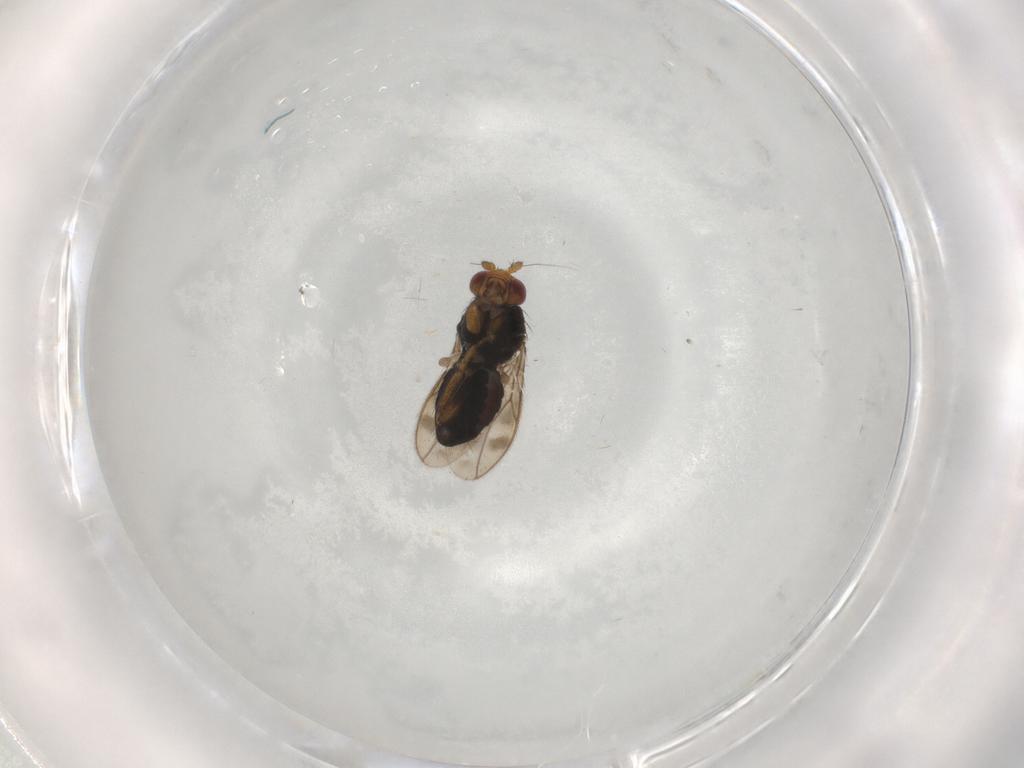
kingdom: Animalia
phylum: Arthropoda
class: Insecta
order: Diptera
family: Sphaeroceridae
